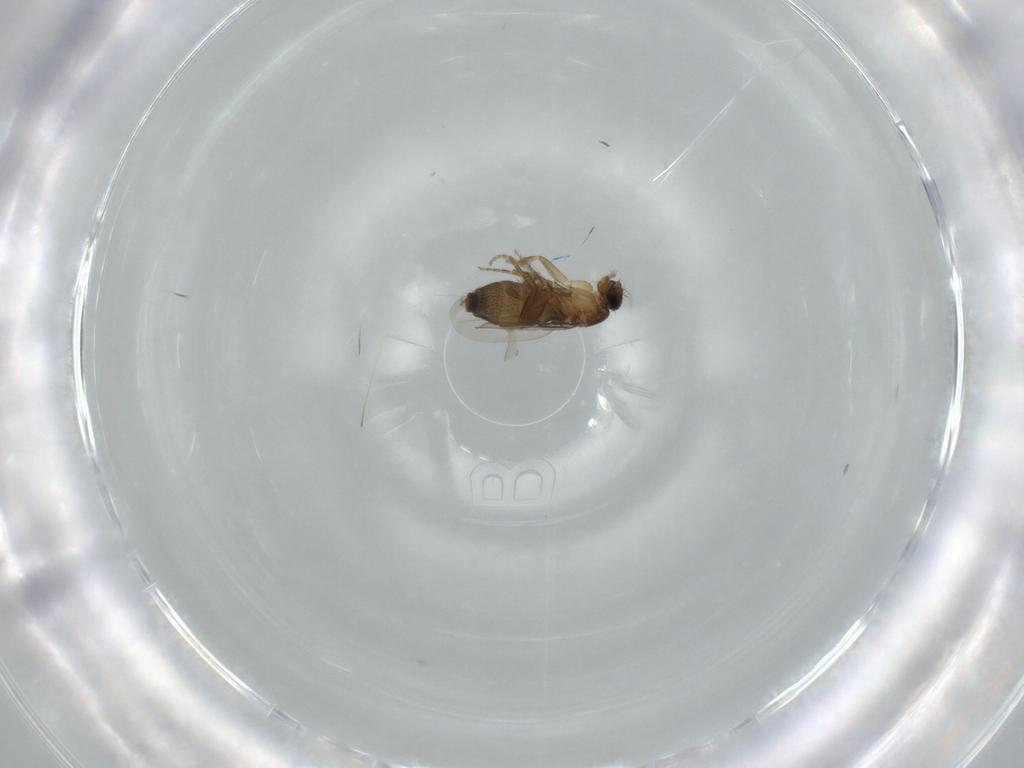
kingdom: Animalia
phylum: Arthropoda
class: Insecta
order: Diptera
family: Phoridae
